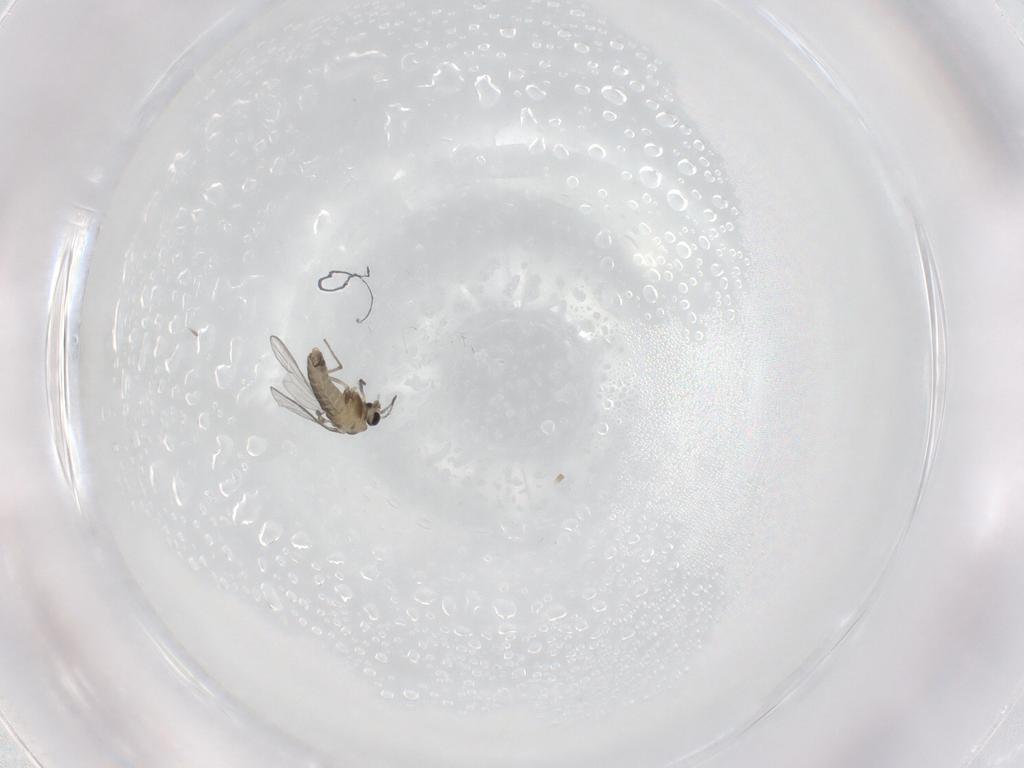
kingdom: Animalia
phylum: Arthropoda
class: Insecta
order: Diptera
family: Chironomidae
